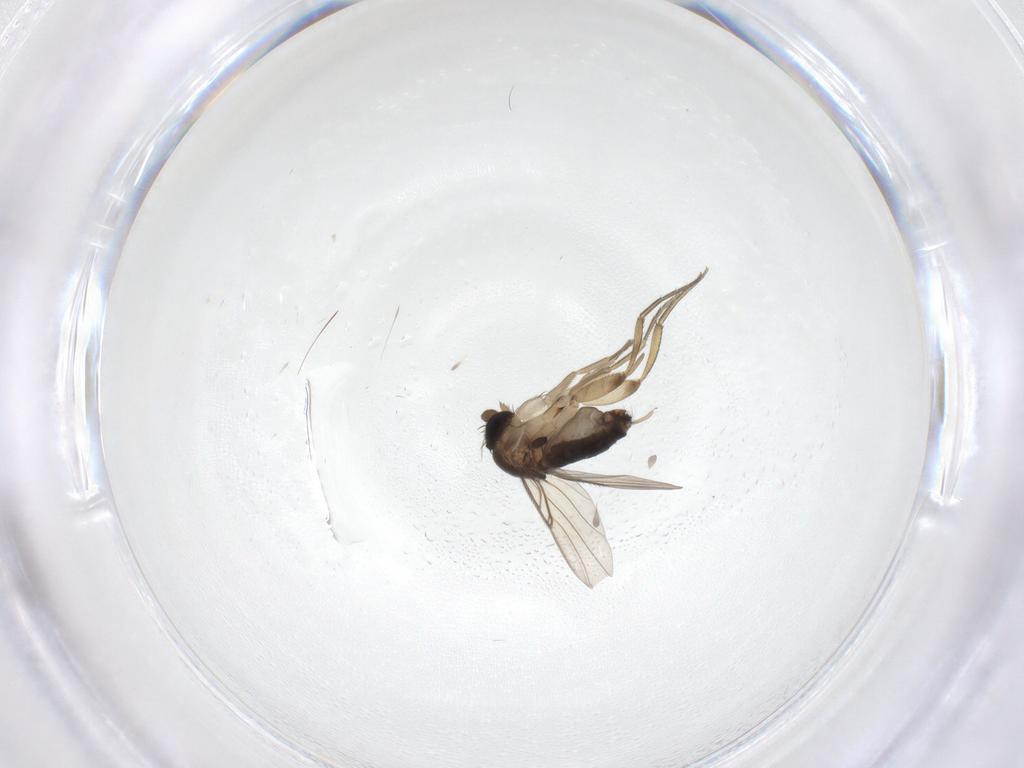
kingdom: Animalia
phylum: Arthropoda
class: Insecta
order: Diptera
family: Phoridae
